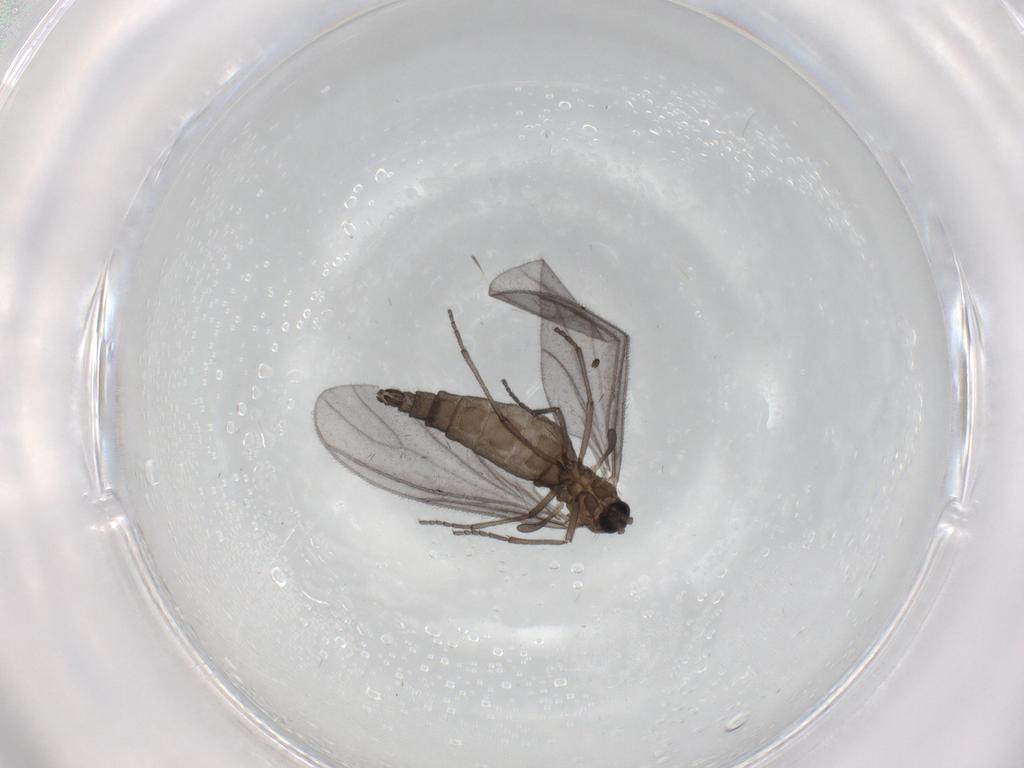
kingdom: Animalia
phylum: Arthropoda
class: Insecta
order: Diptera
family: Sciaridae
